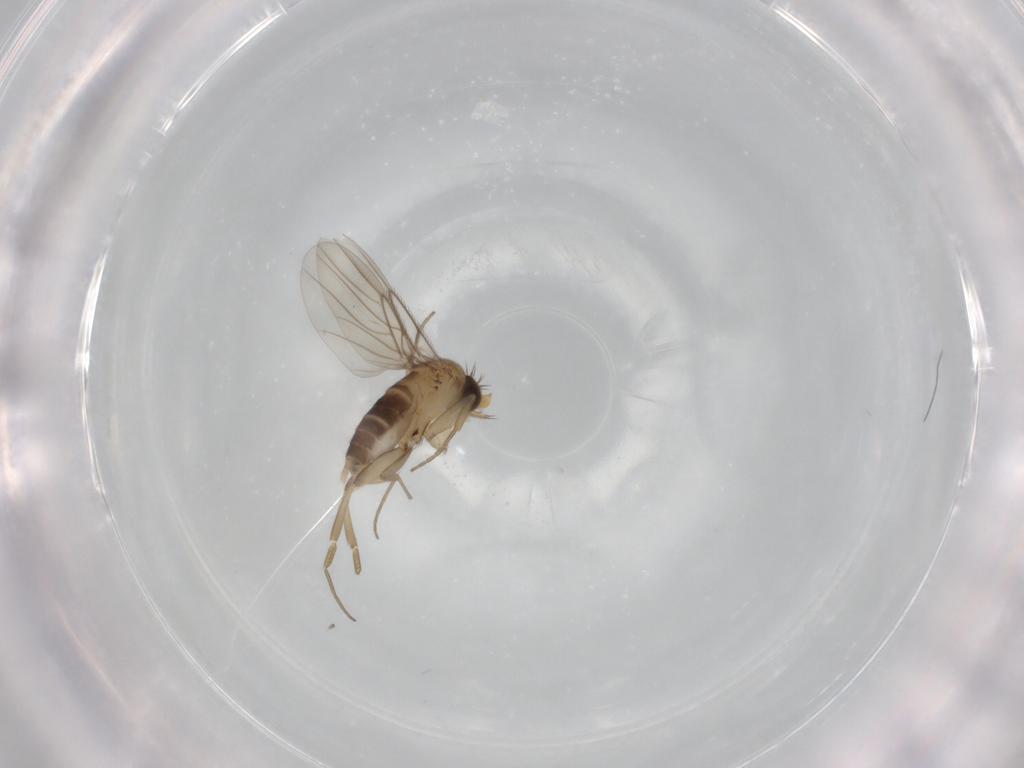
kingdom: Animalia
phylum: Arthropoda
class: Insecta
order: Diptera
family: Phoridae
